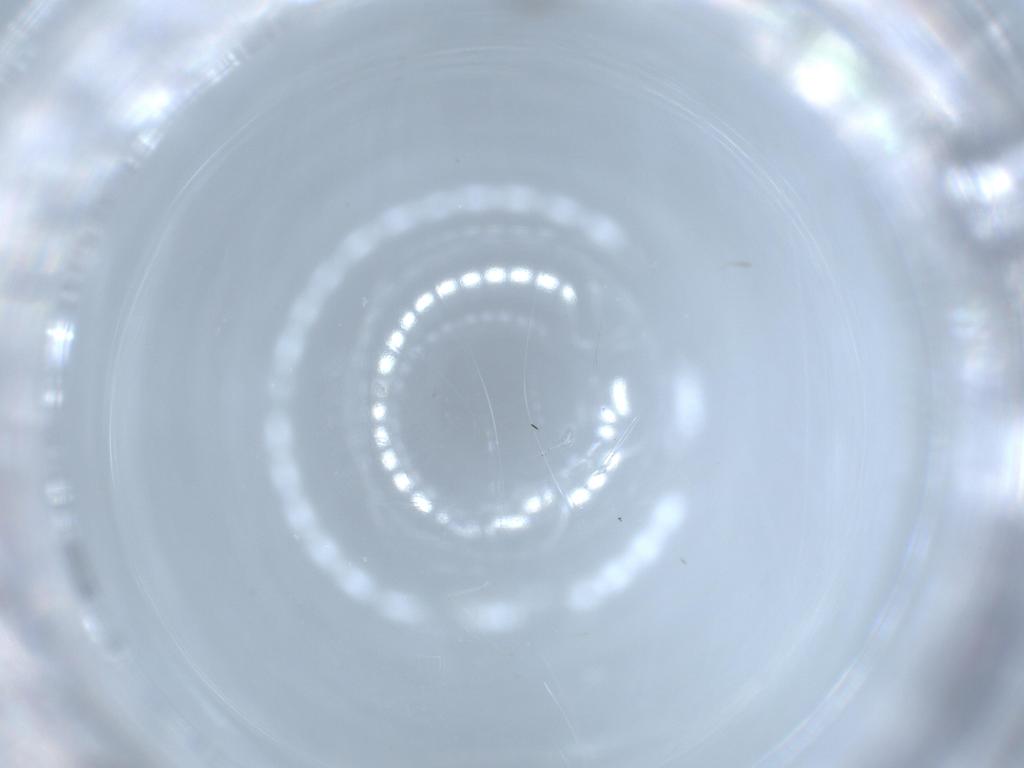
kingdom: Animalia
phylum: Arthropoda
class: Insecta
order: Diptera
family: Cecidomyiidae
